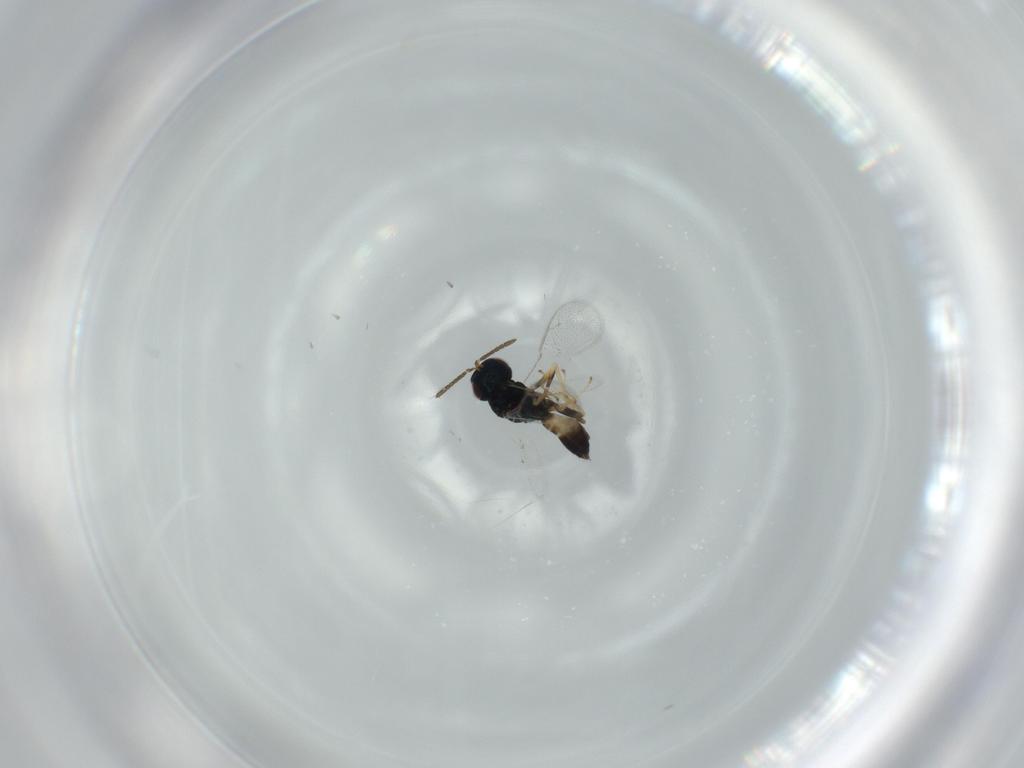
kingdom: Animalia
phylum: Arthropoda
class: Insecta
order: Hymenoptera
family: Pteromalidae
